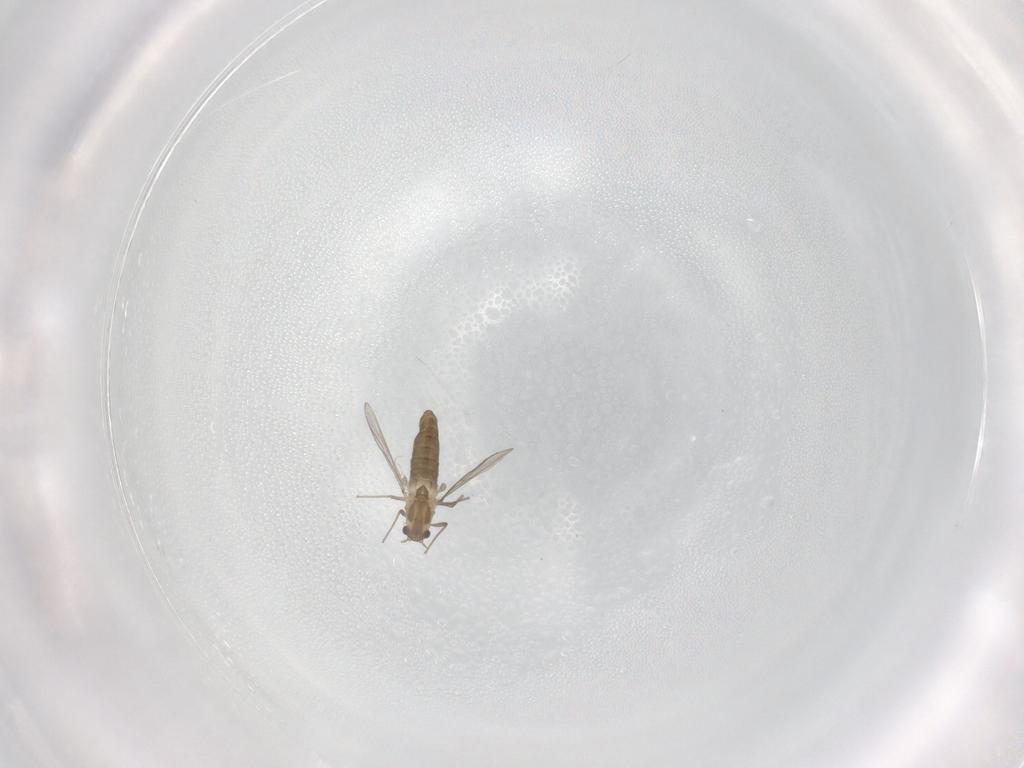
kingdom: Animalia
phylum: Arthropoda
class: Insecta
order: Diptera
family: Chironomidae
